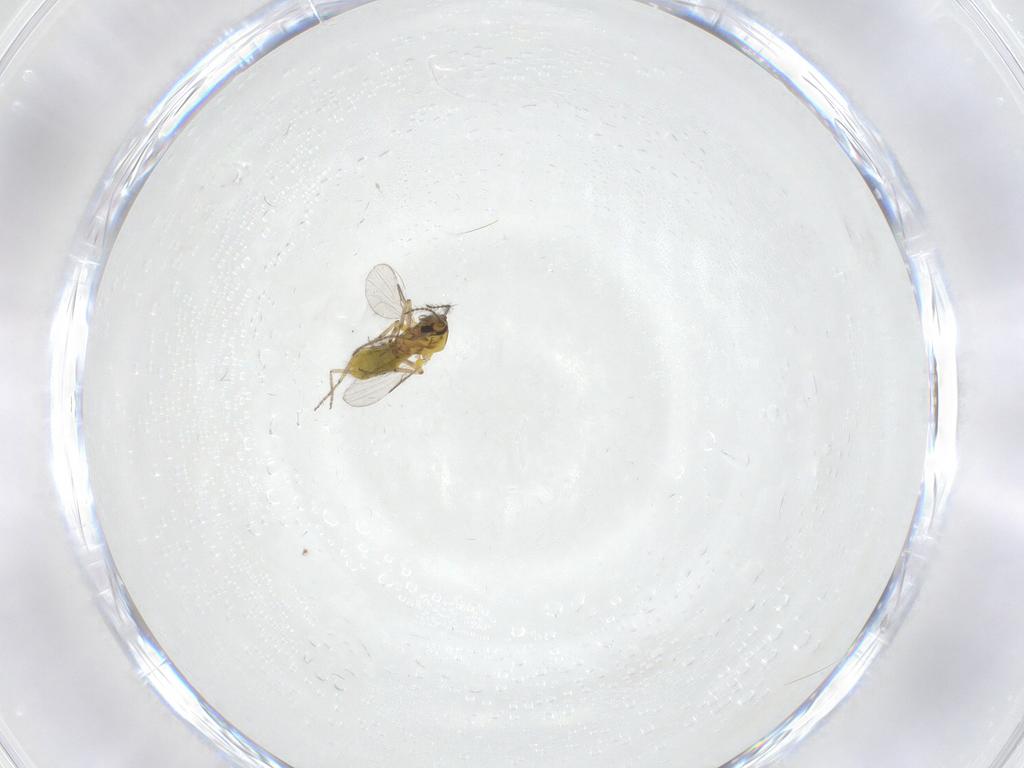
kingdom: Animalia
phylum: Arthropoda
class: Insecta
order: Diptera
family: Ceratopogonidae
